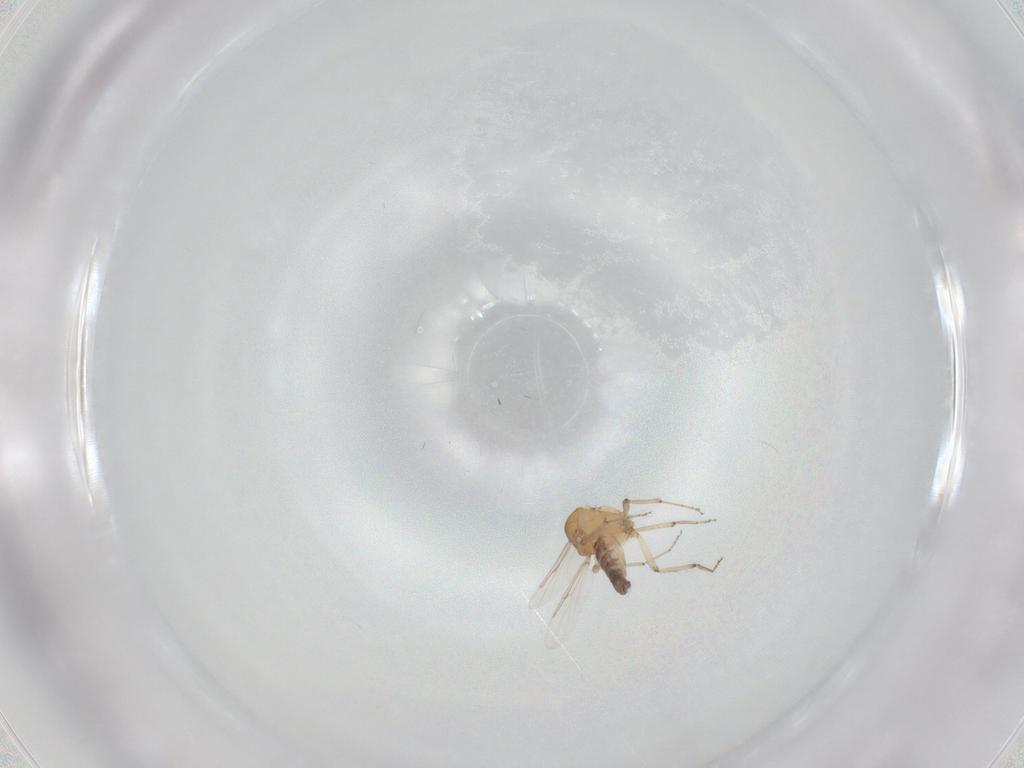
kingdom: Animalia
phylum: Arthropoda
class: Insecta
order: Diptera
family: Ceratopogonidae
